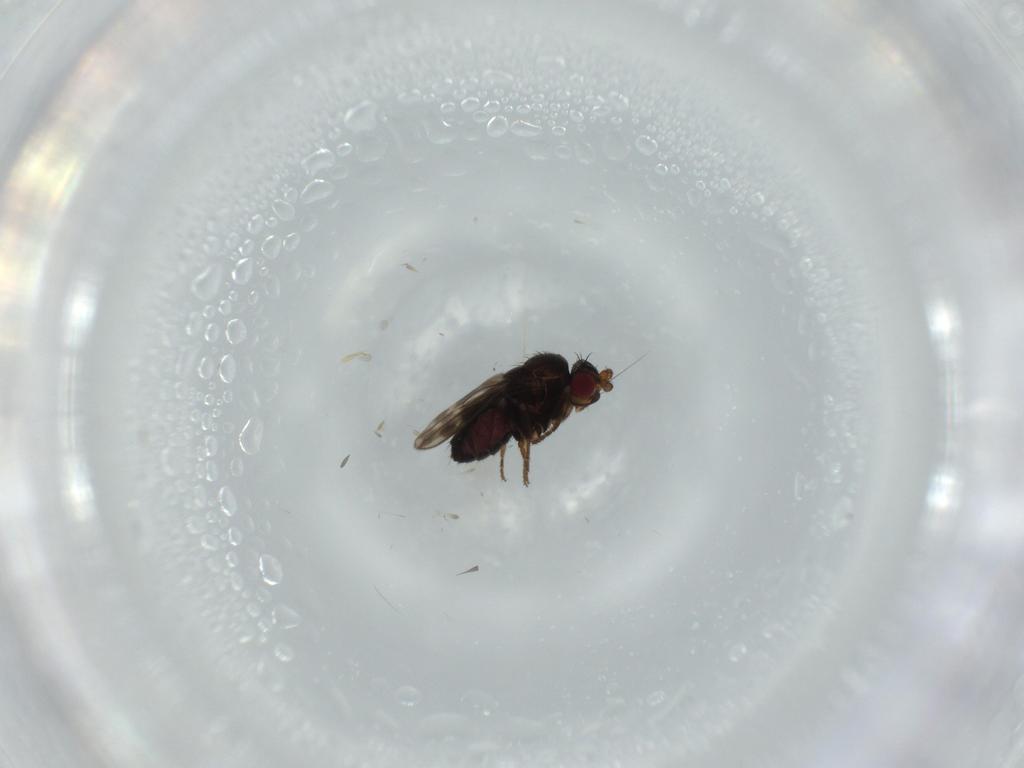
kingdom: Animalia
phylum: Arthropoda
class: Insecta
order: Diptera
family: Sphaeroceridae
